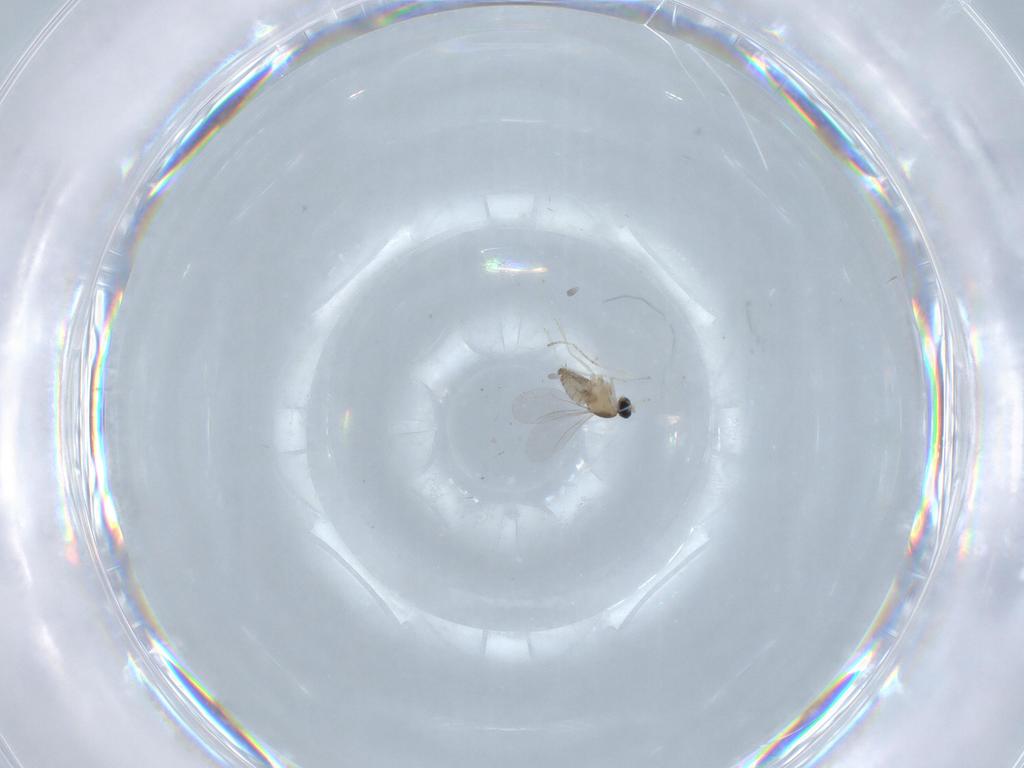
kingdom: Animalia
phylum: Arthropoda
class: Insecta
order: Diptera
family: Cecidomyiidae
